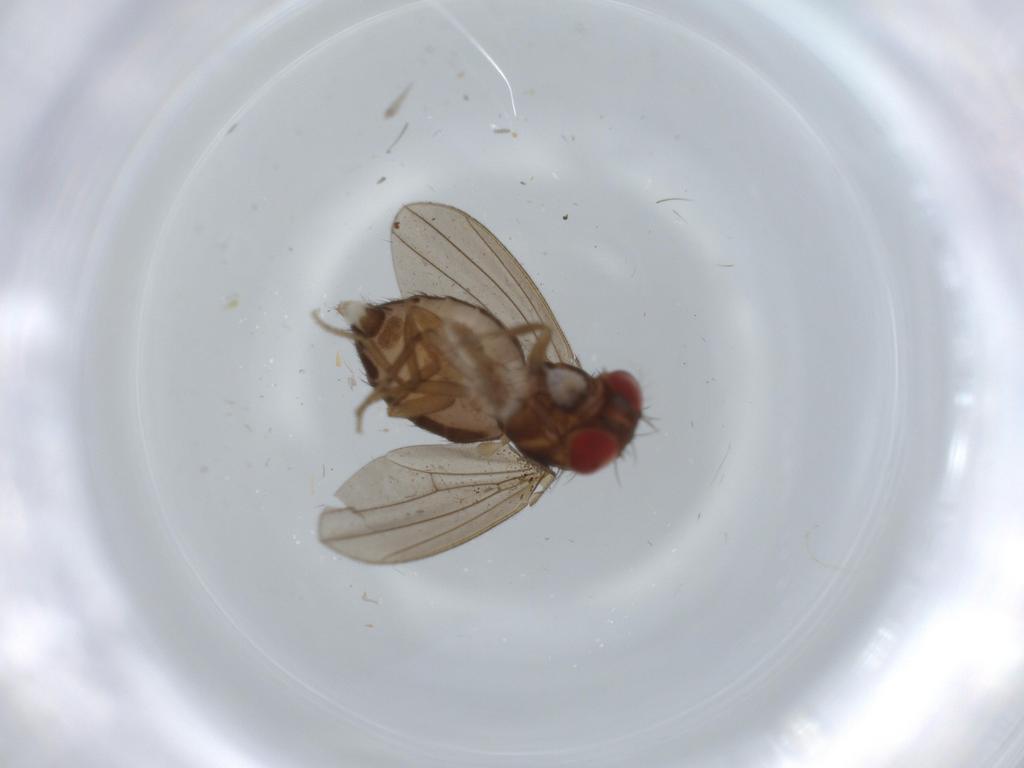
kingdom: Animalia
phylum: Arthropoda
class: Insecta
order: Diptera
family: Drosophilidae
